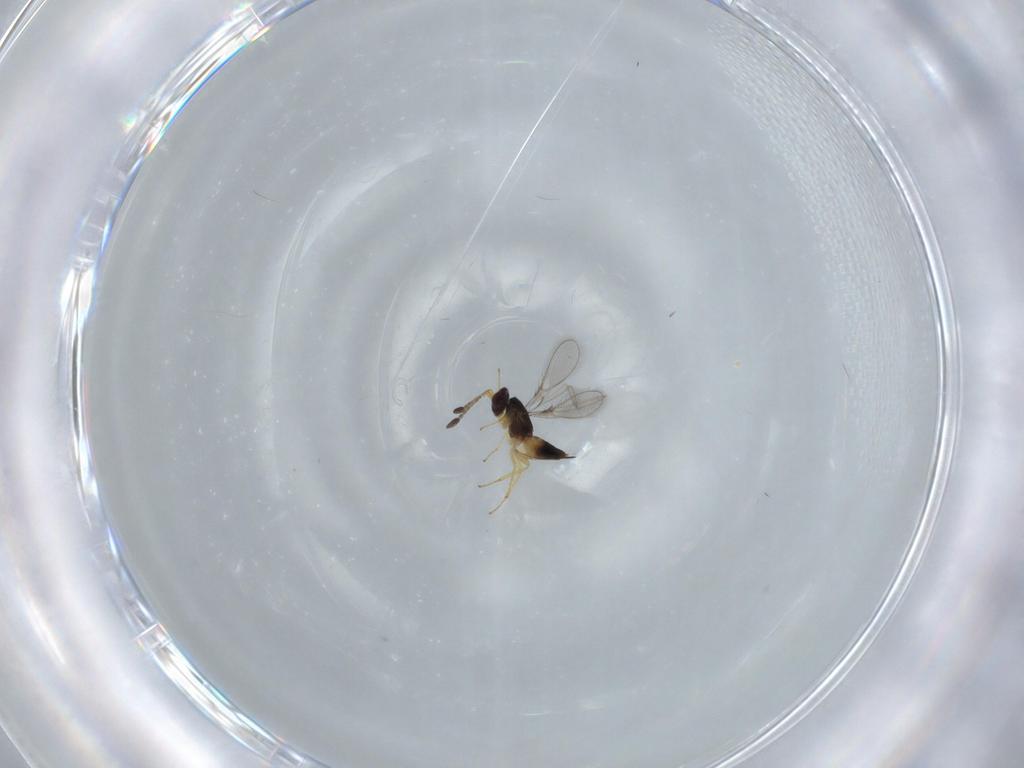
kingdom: Animalia
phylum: Arthropoda
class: Insecta
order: Hymenoptera
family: Mymaridae
